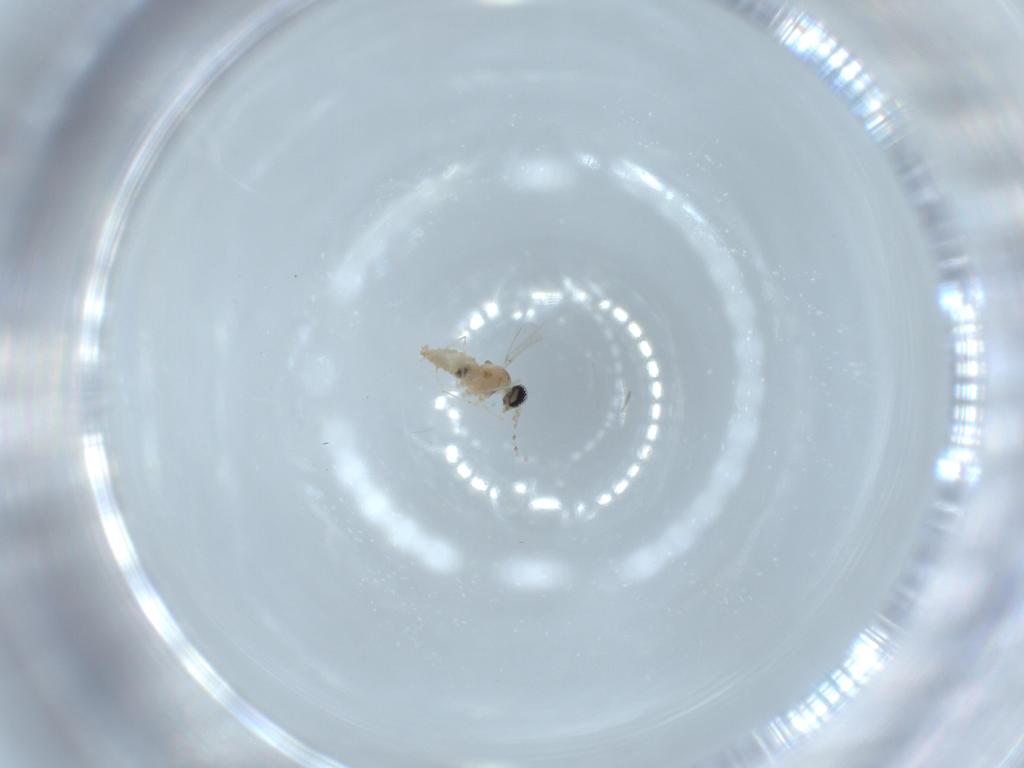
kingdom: Animalia
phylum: Arthropoda
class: Insecta
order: Diptera
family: Cecidomyiidae
